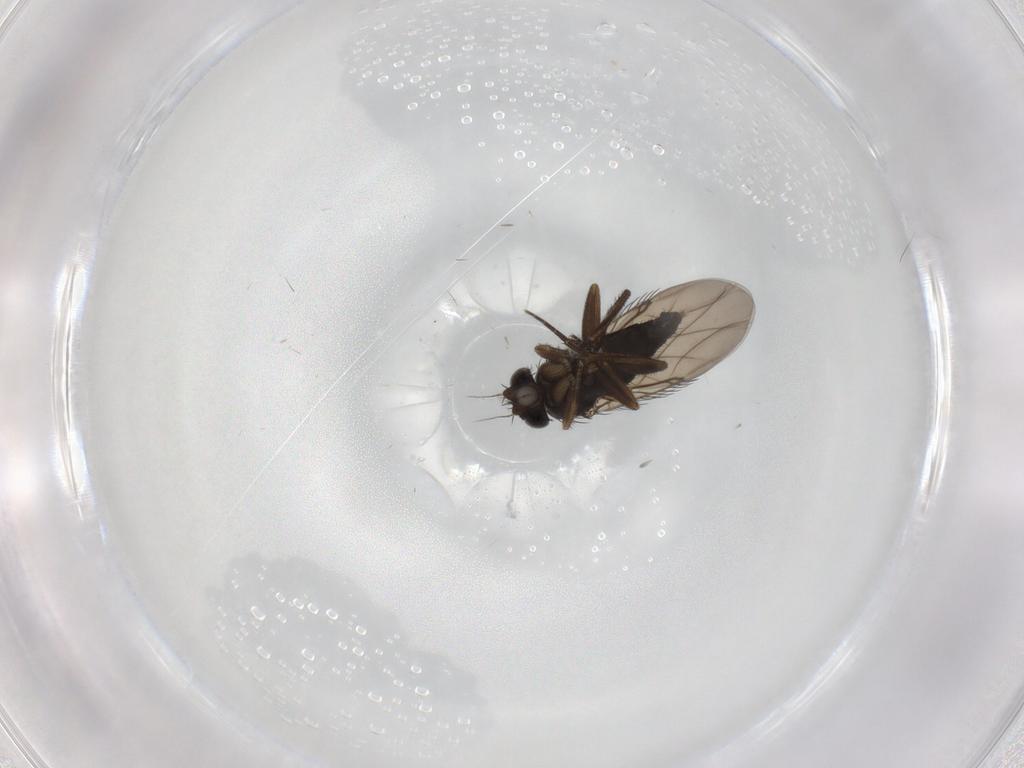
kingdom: Animalia
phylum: Arthropoda
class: Insecta
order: Diptera
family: Phoridae
